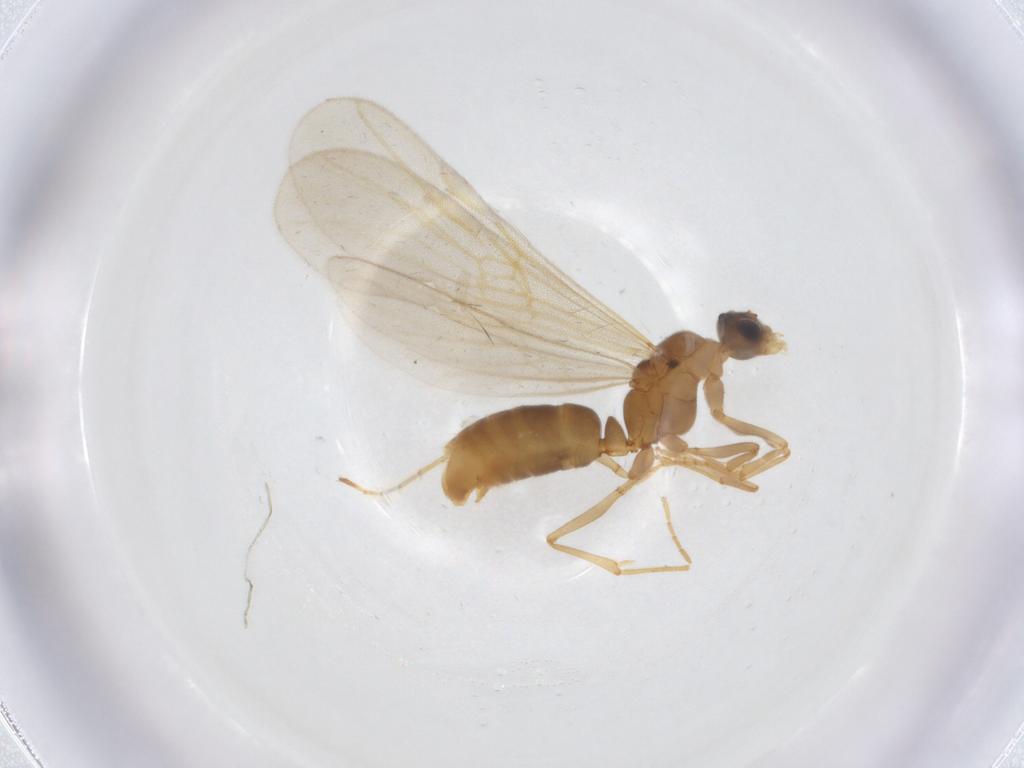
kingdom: Animalia
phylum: Arthropoda
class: Insecta
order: Hymenoptera
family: Formicidae
